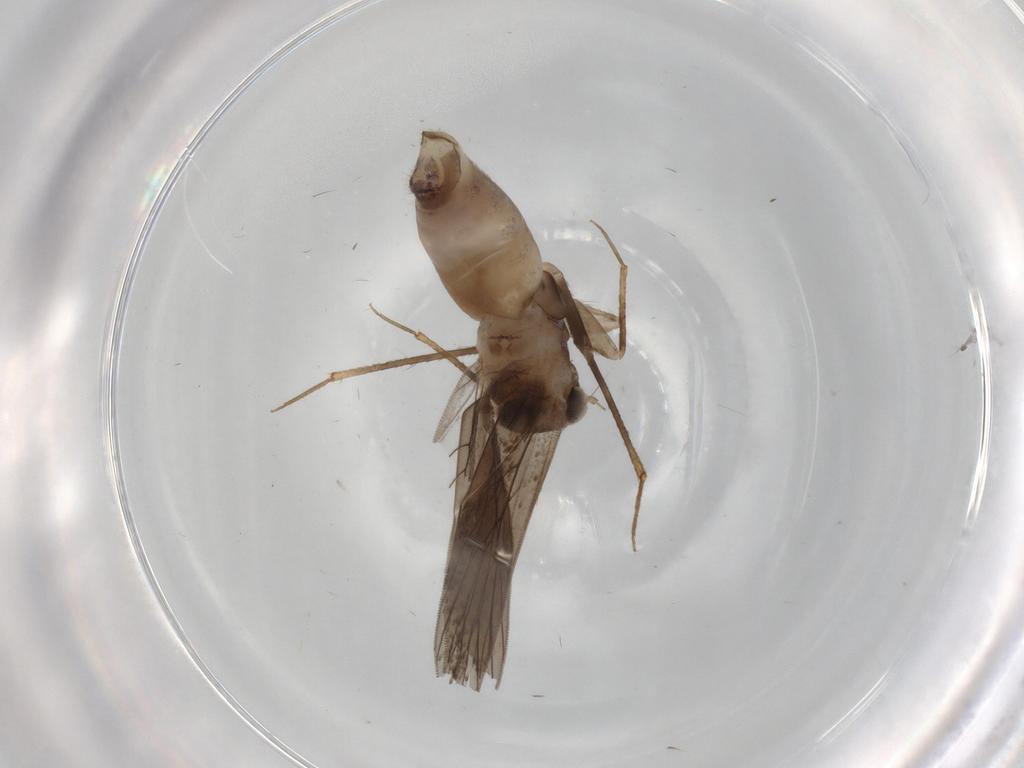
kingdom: Animalia
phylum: Arthropoda
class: Insecta
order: Psocodea
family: Lepidopsocidae
